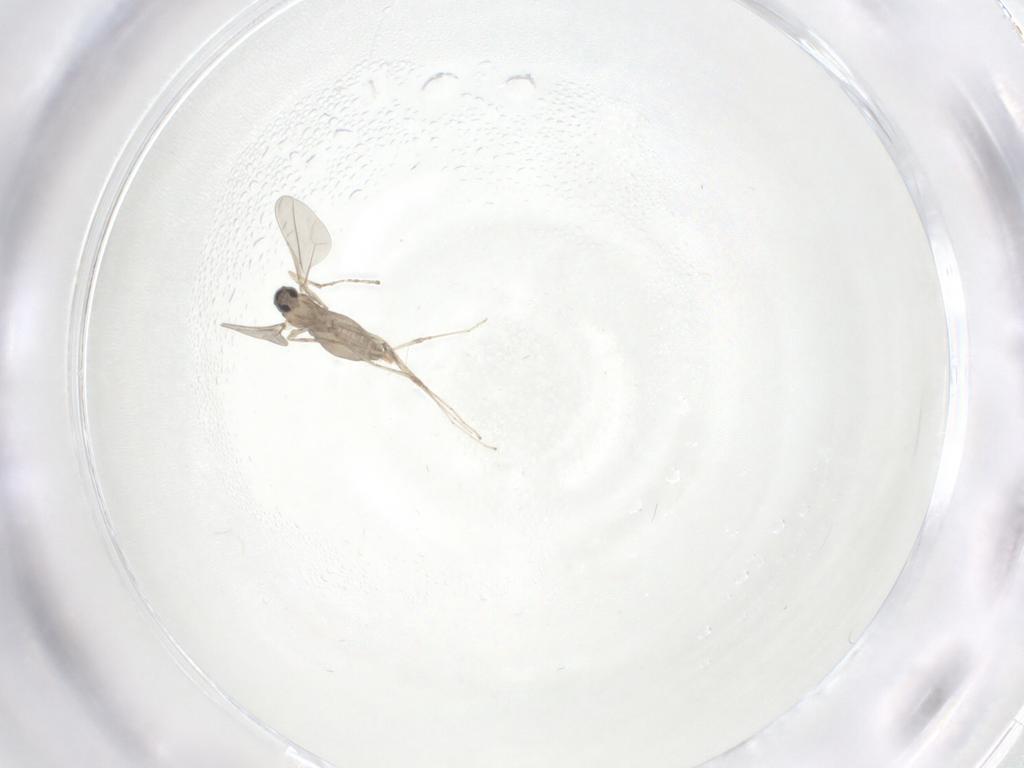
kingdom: Animalia
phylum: Arthropoda
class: Insecta
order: Diptera
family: Cecidomyiidae
